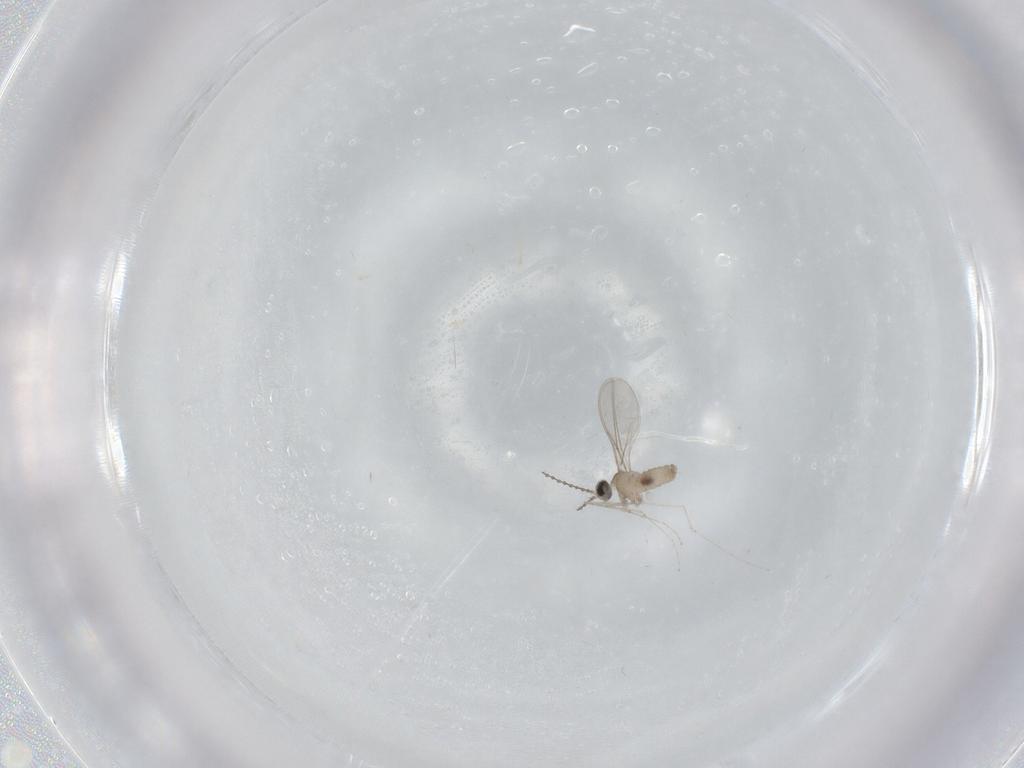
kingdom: Animalia
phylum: Arthropoda
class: Insecta
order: Diptera
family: Cecidomyiidae
